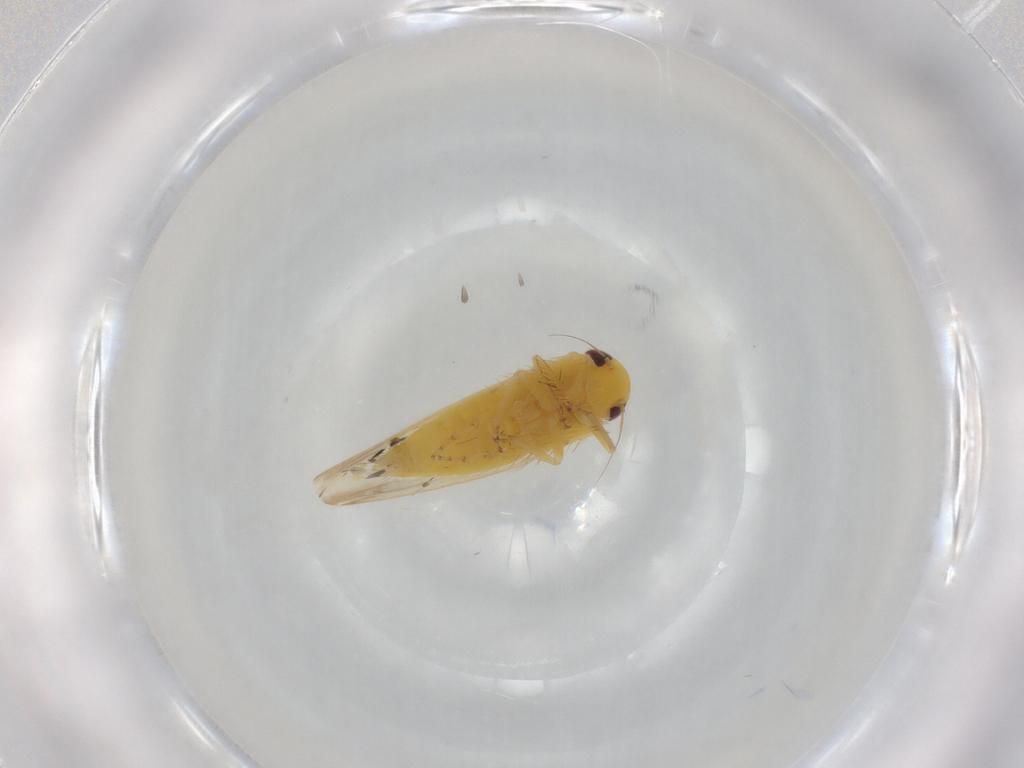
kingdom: Animalia
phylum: Arthropoda
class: Insecta
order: Hemiptera
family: Cicadellidae
